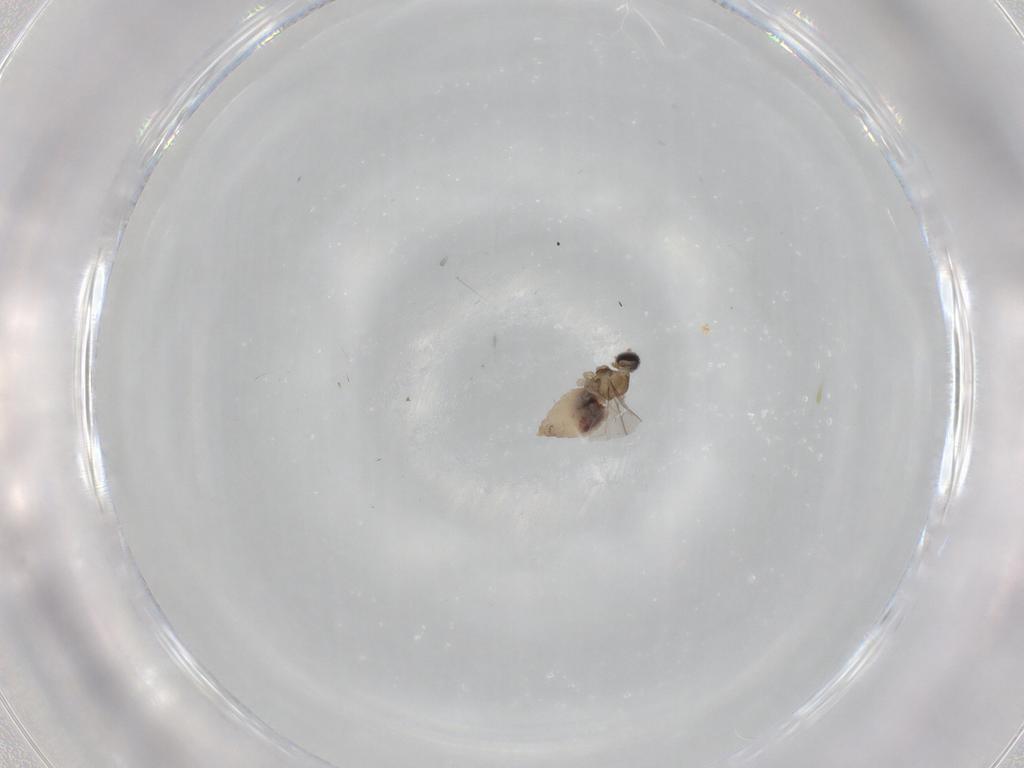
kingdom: Animalia
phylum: Arthropoda
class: Insecta
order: Diptera
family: Cecidomyiidae
